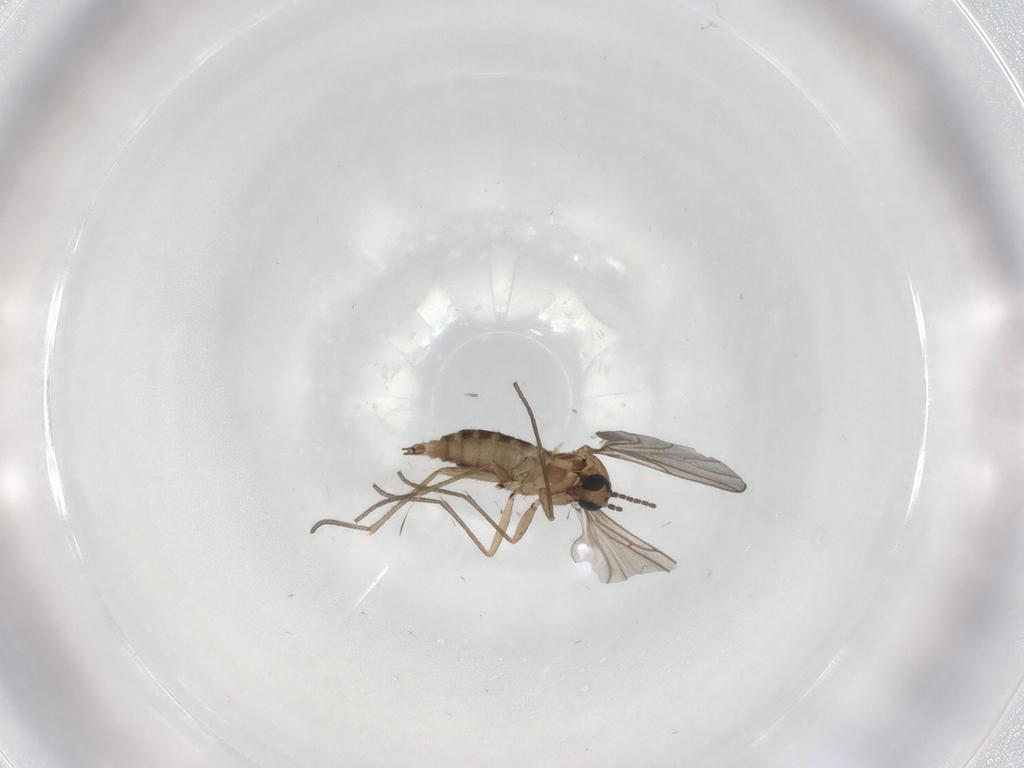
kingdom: Animalia
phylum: Arthropoda
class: Insecta
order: Diptera
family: Sciaridae
